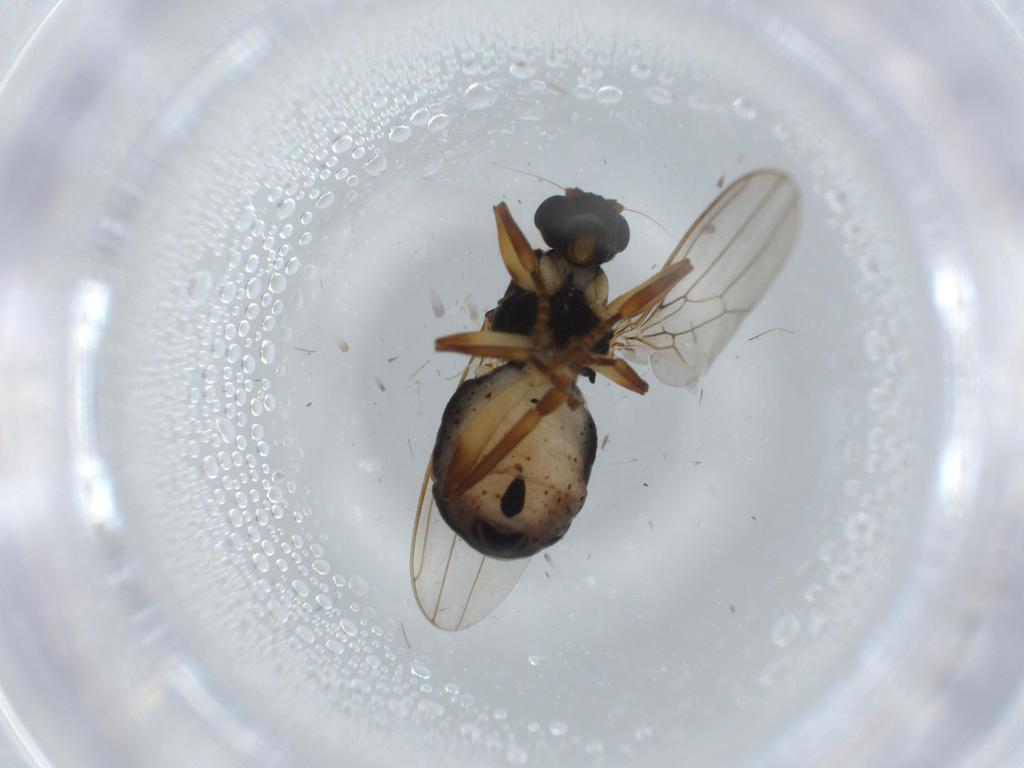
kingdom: Animalia
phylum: Arthropoda
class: Insecta
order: Diptera
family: Sphaeroceridae
